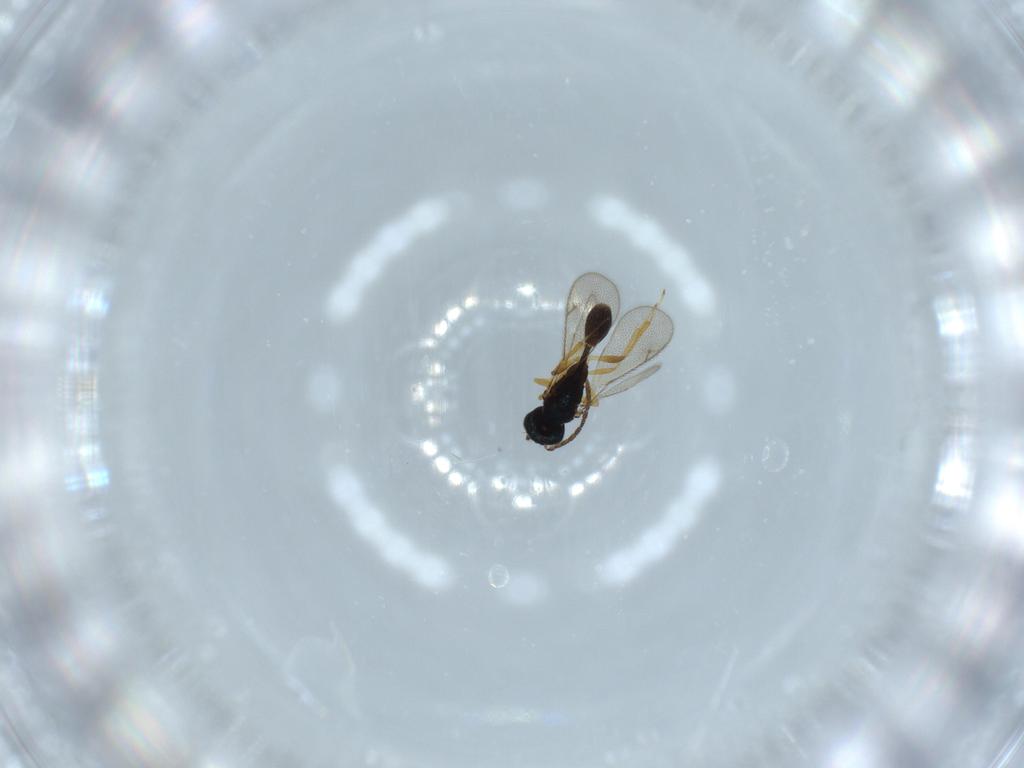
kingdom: Animalia
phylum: Arthropoda
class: Insecta
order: Hymenoptera
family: Diparidae
